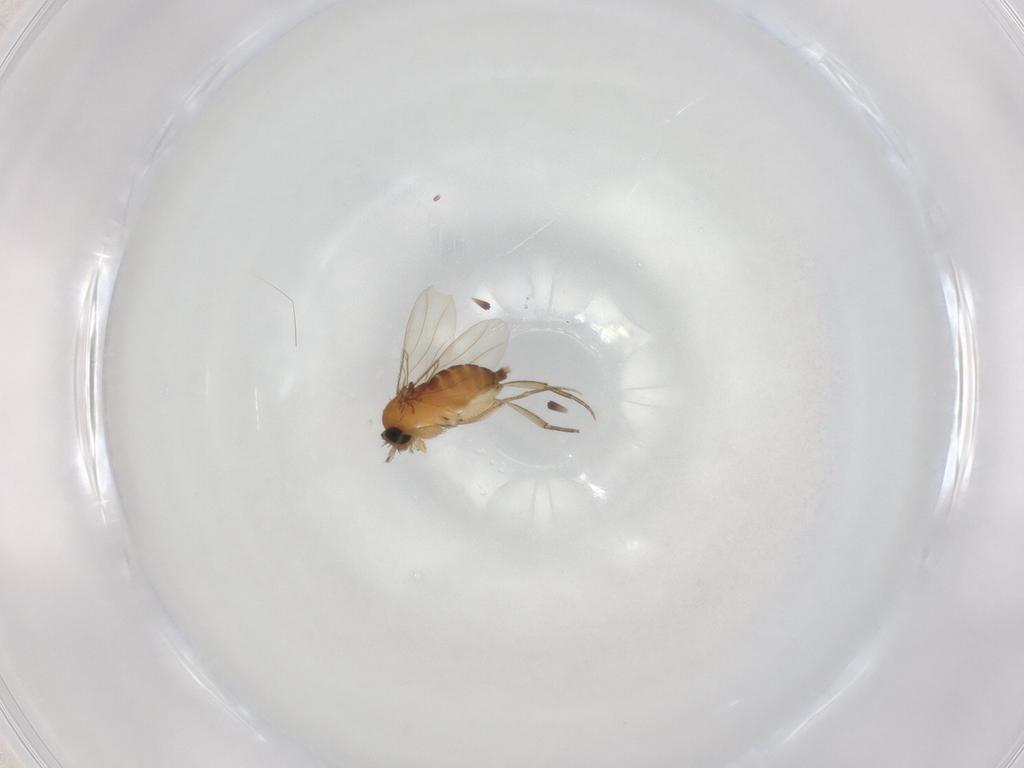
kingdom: Animalia
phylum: Arthropoda
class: Insecta
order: Diptera
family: Phoridae
